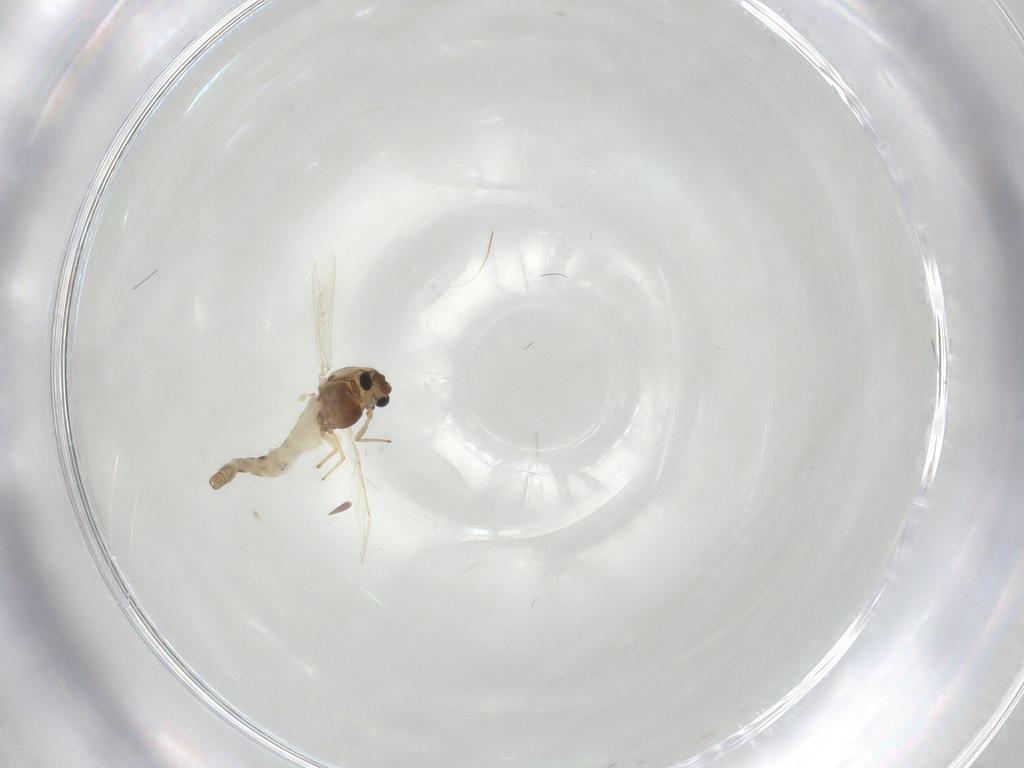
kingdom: Animalia
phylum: Arthropoda
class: Insecta
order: Diptera
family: Chironomidae
